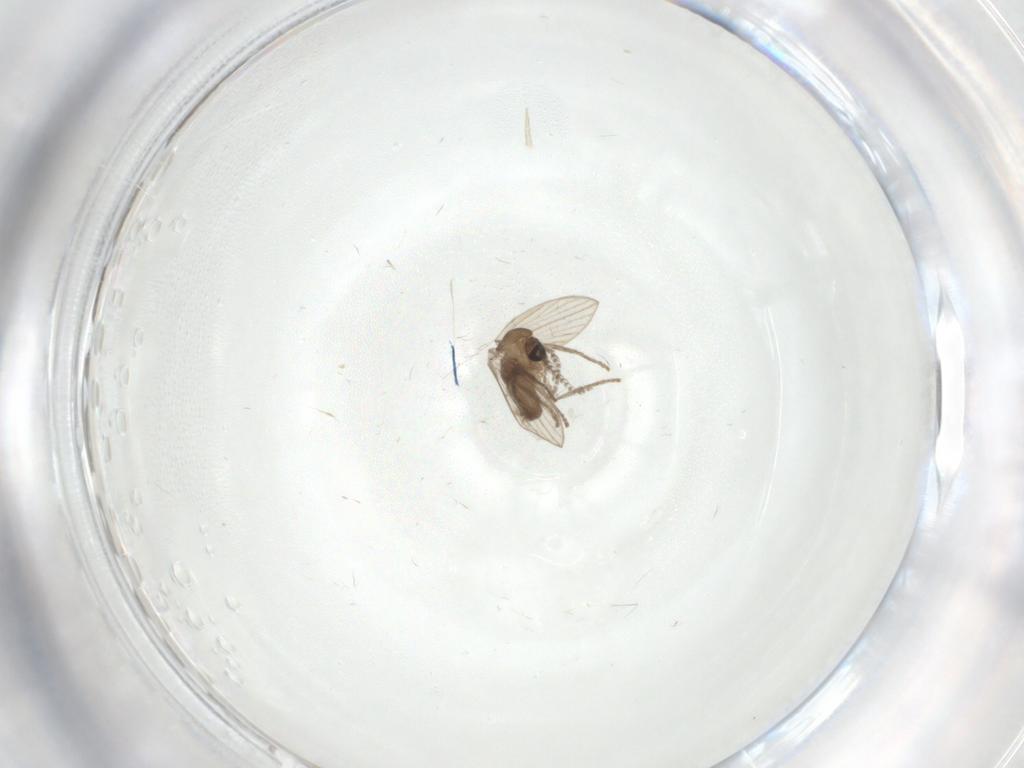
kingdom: Animalia
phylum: Arthropoda
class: Insecta
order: Diptera
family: Psychodidae
